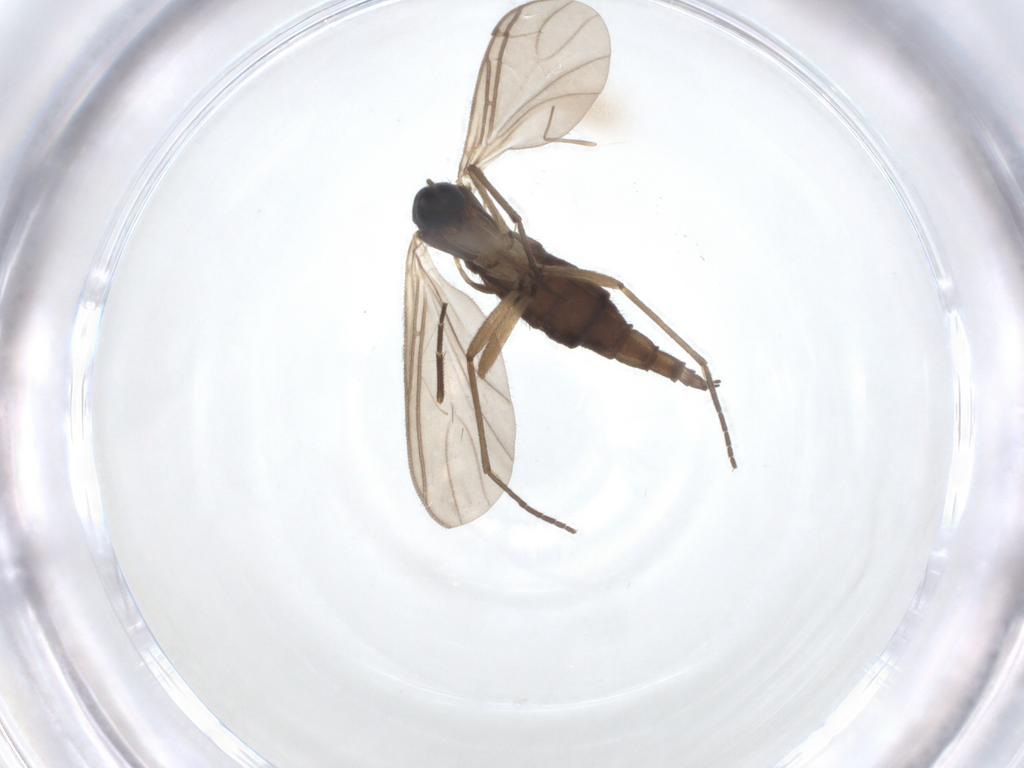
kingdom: Animalia
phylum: Arthropoda
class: Insecta
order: Diptera
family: Sciaridae
